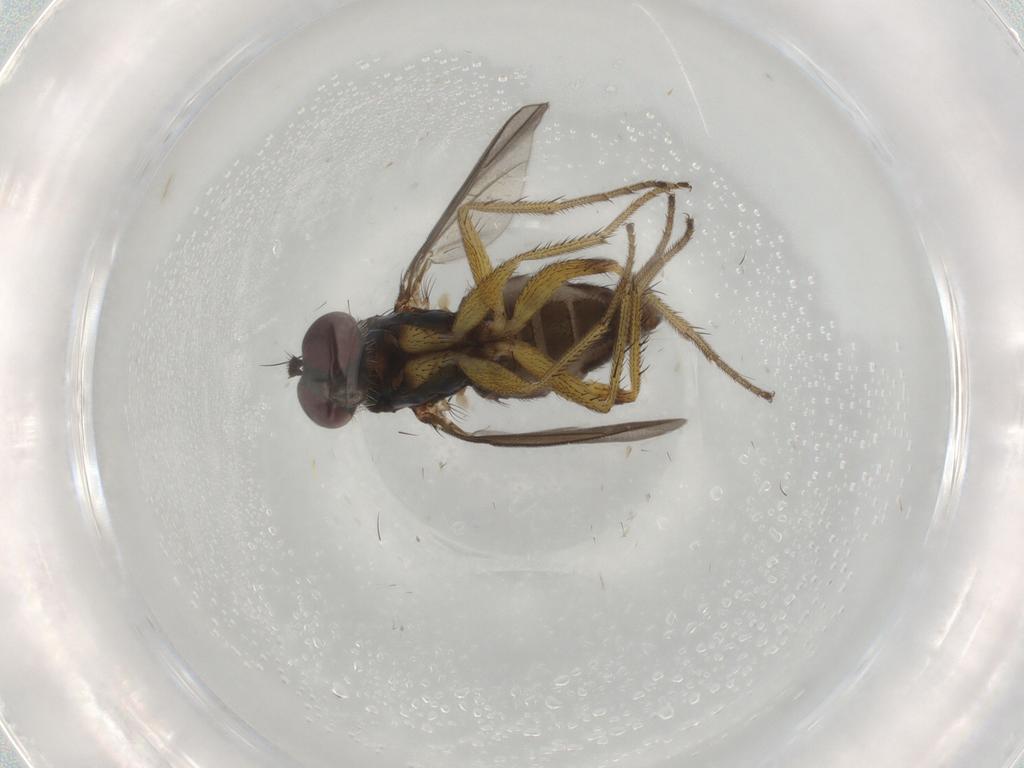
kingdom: Animalia
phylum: Arthropoda
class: Insecta
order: Diptera
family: Dolichopodidae
